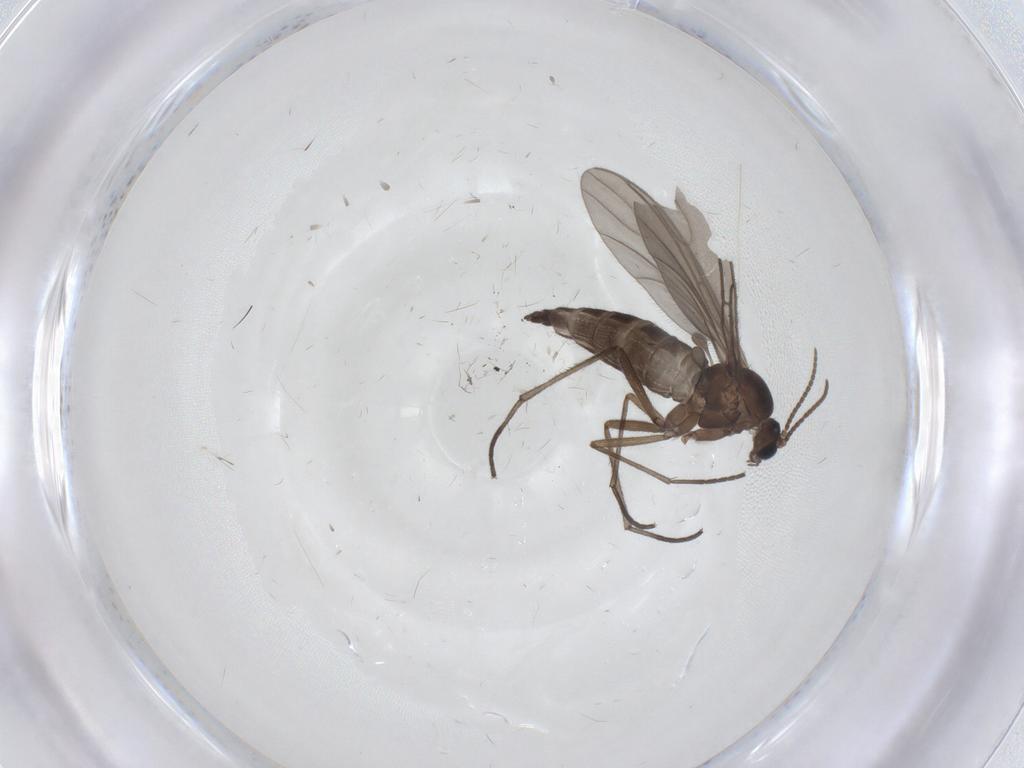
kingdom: Animalia
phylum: Arthropoda
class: Insecta
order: Diptera
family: Sciaridae
